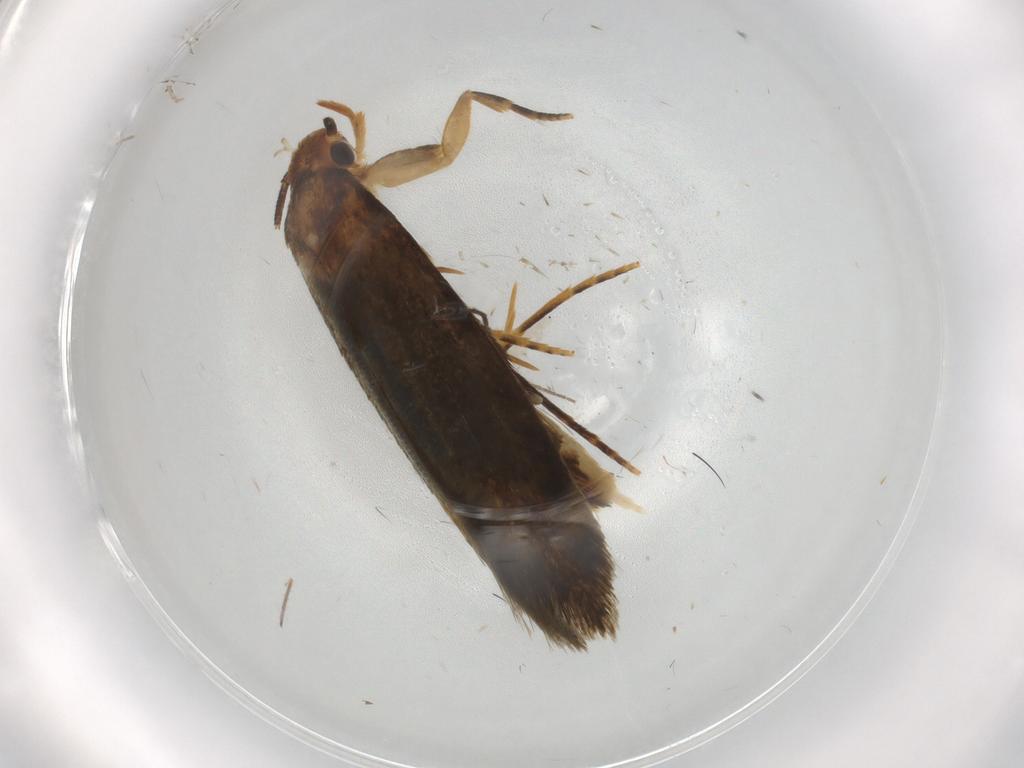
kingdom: Animalia
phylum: Arthropoda
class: Insecta
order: Lepidoptera
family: Tineidae
